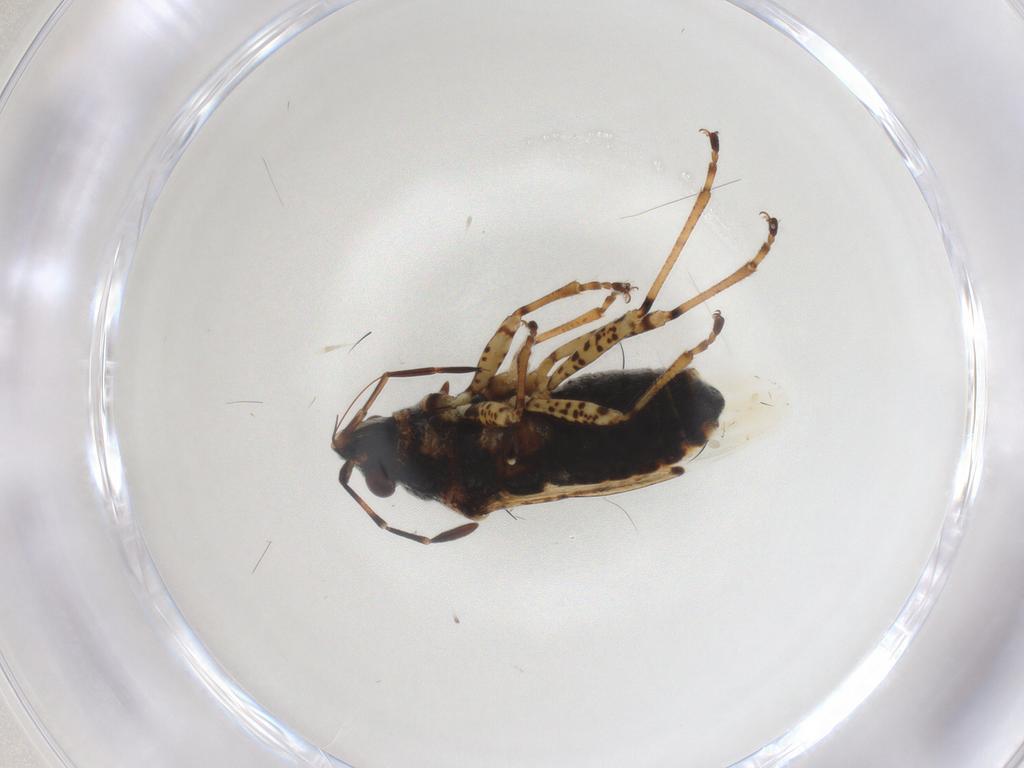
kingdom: Animalia
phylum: Arthropoda
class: Insecta
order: Hemiptera
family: Lygaeidae
